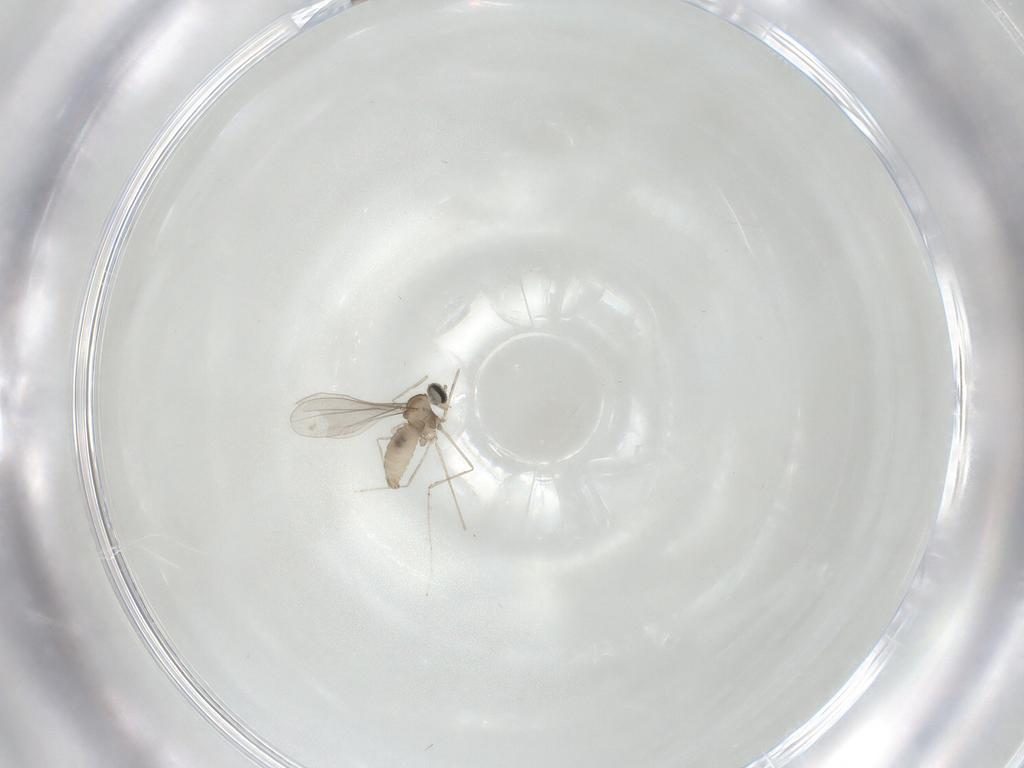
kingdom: Animalia
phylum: Arthropoda
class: Insecta
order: Diptera
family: Cecidomyiidae
